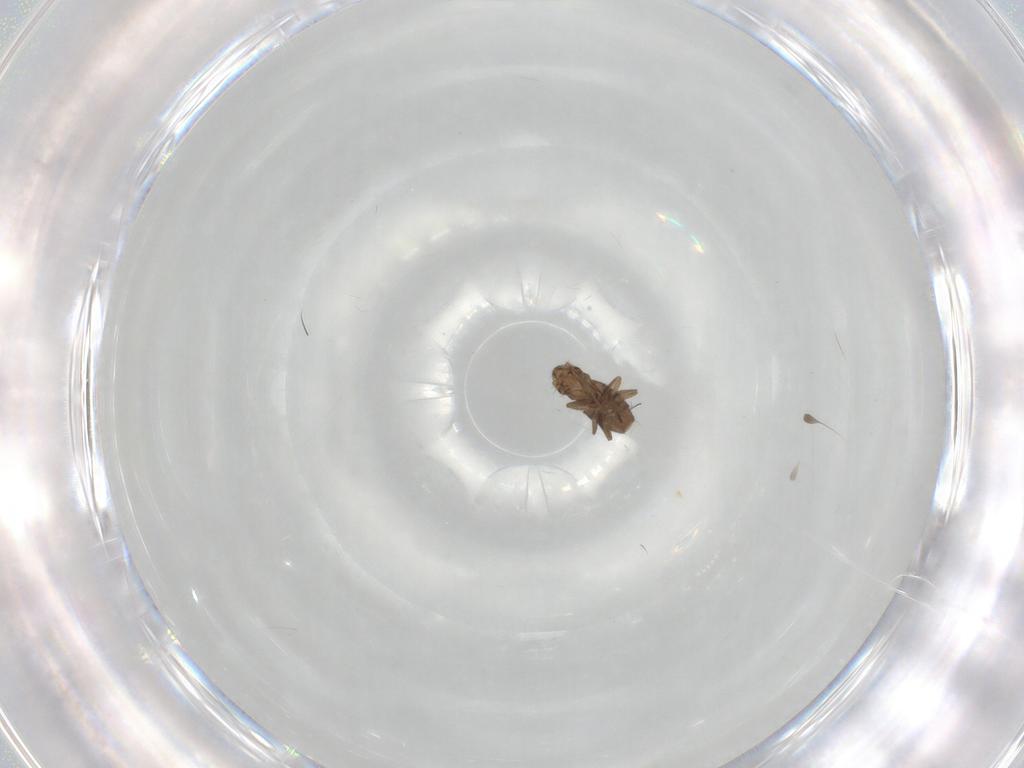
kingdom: Animalia
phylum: Arthropoda
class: Insecta
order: Diptera
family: Phoridae
